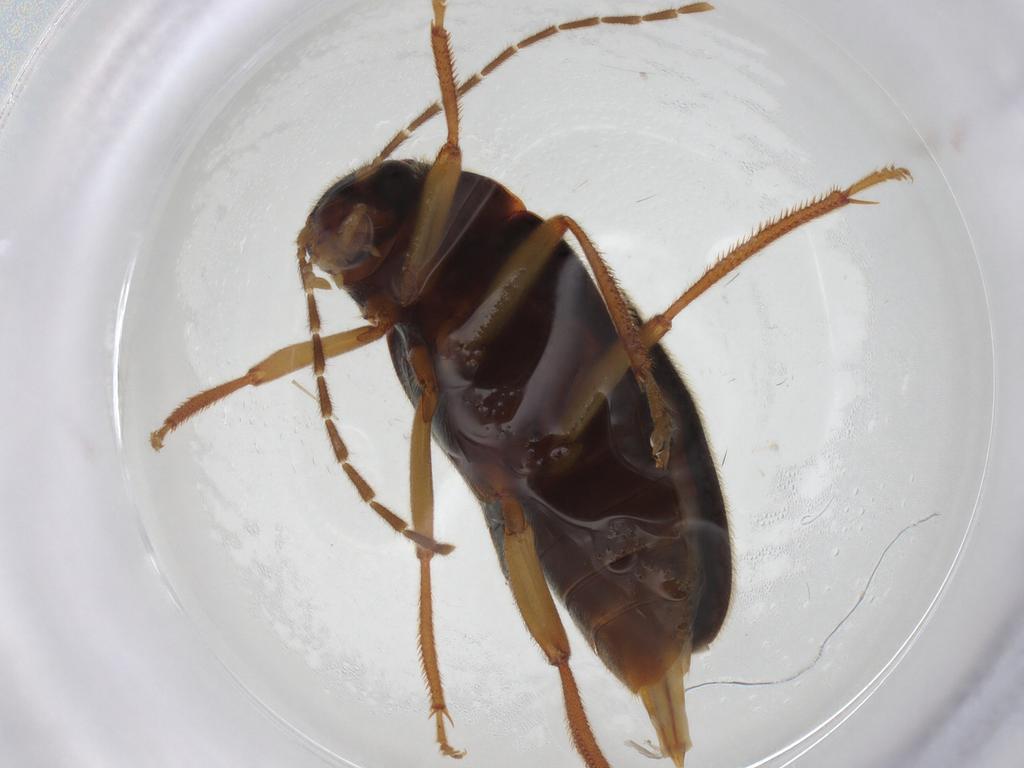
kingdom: Animalia
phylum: Arthropoda
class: Insecta
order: Coleoptera
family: Ptilodactylidae
